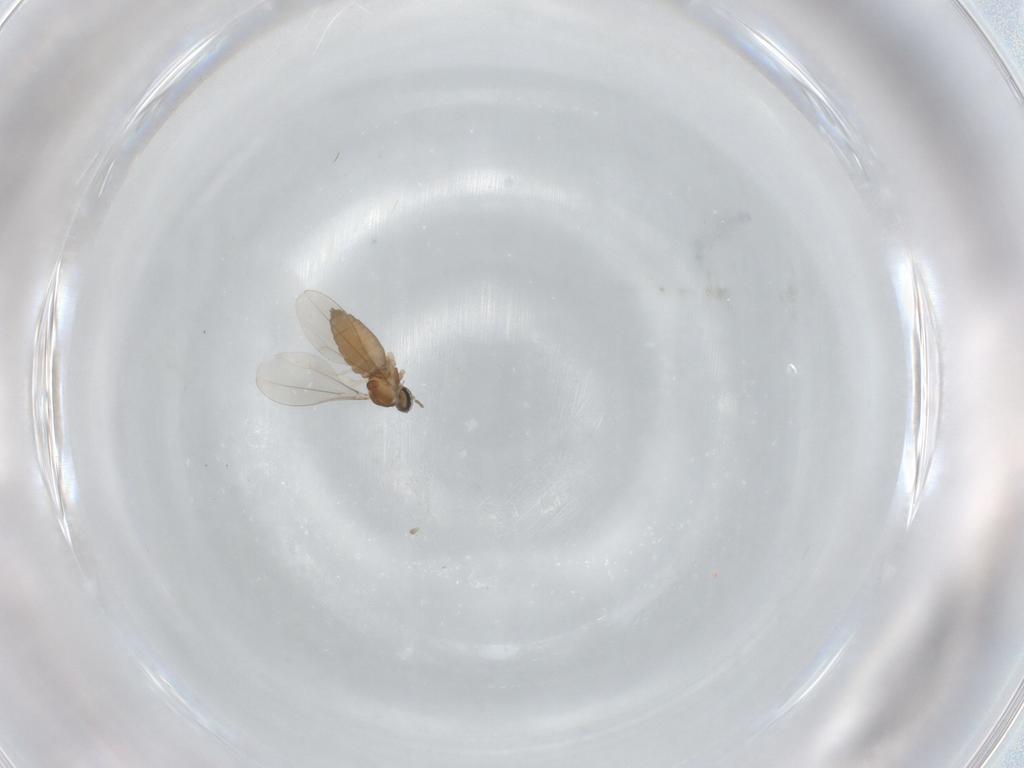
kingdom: Animalia
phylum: Arthropoda
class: Insecta
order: Diptera
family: Cecidomyiidae
